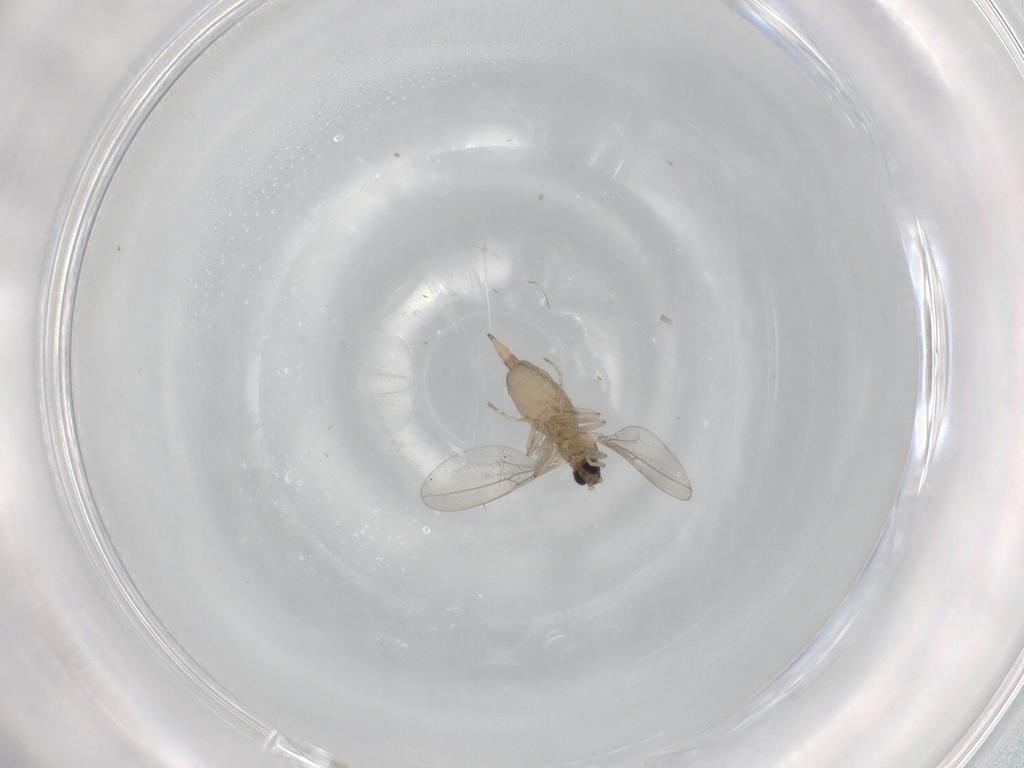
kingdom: Animalia
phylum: Arthropoda
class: Insecta
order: Diptera
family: Cecidomyiidae
